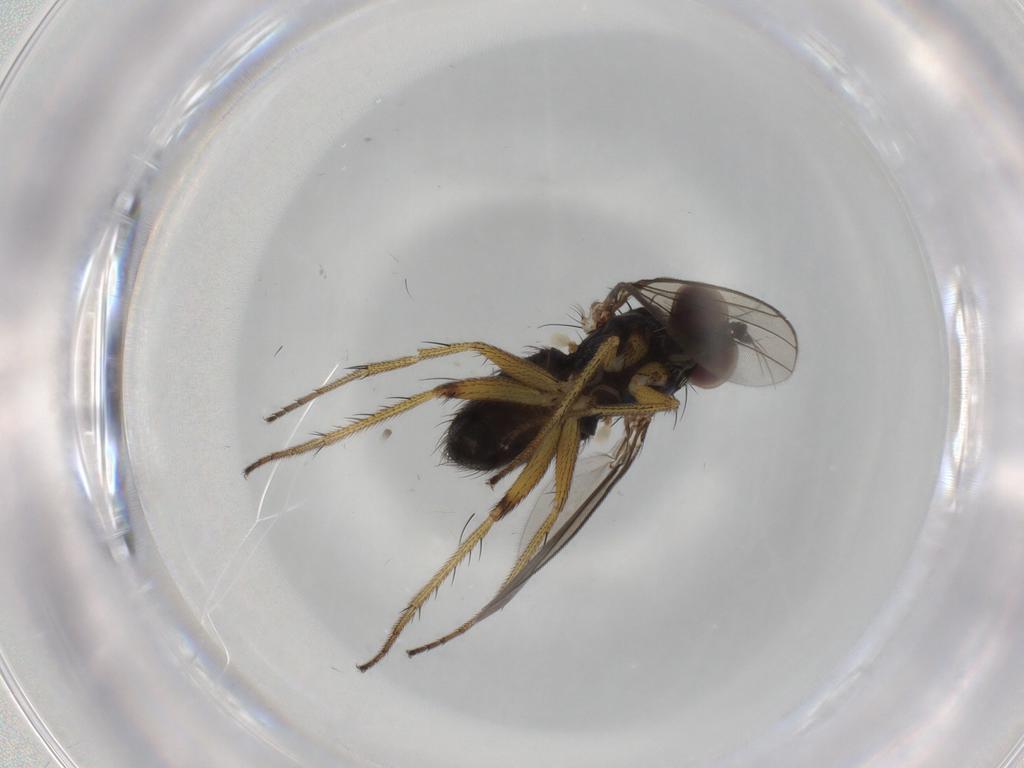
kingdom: Animalia
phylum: Arthropoda
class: Insecta
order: Diptera
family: Dolichopodidae
